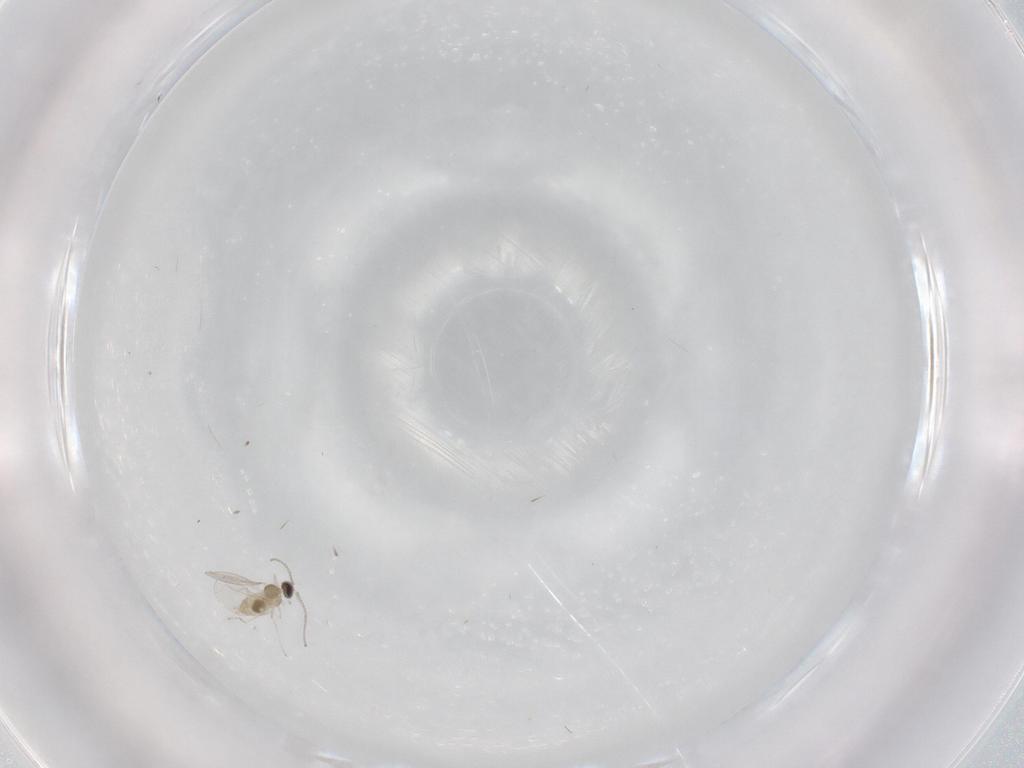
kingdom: Animalia
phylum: Arthropoda
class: Insecta
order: Diptera
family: Cecidomyiidae
